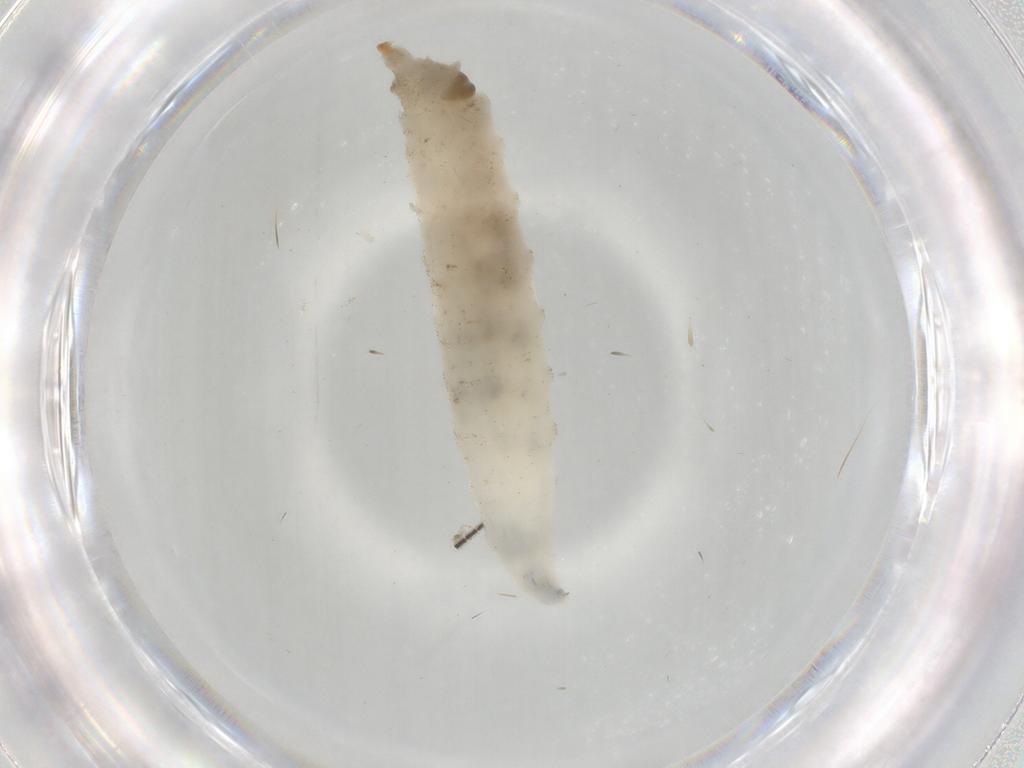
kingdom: Animalia
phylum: Arthropoda
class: Insecta
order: Diptera
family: Drosophilidae
